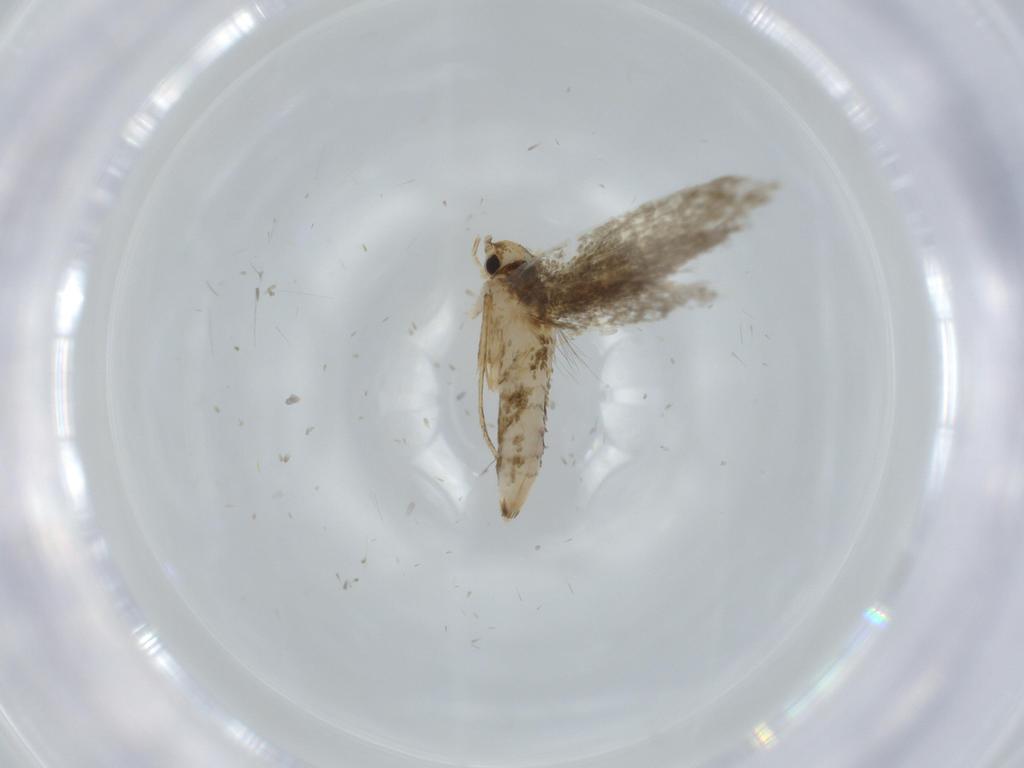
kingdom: Animalia
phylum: Arthropoda
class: Insecta
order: Lepidoptera
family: Tineidae
